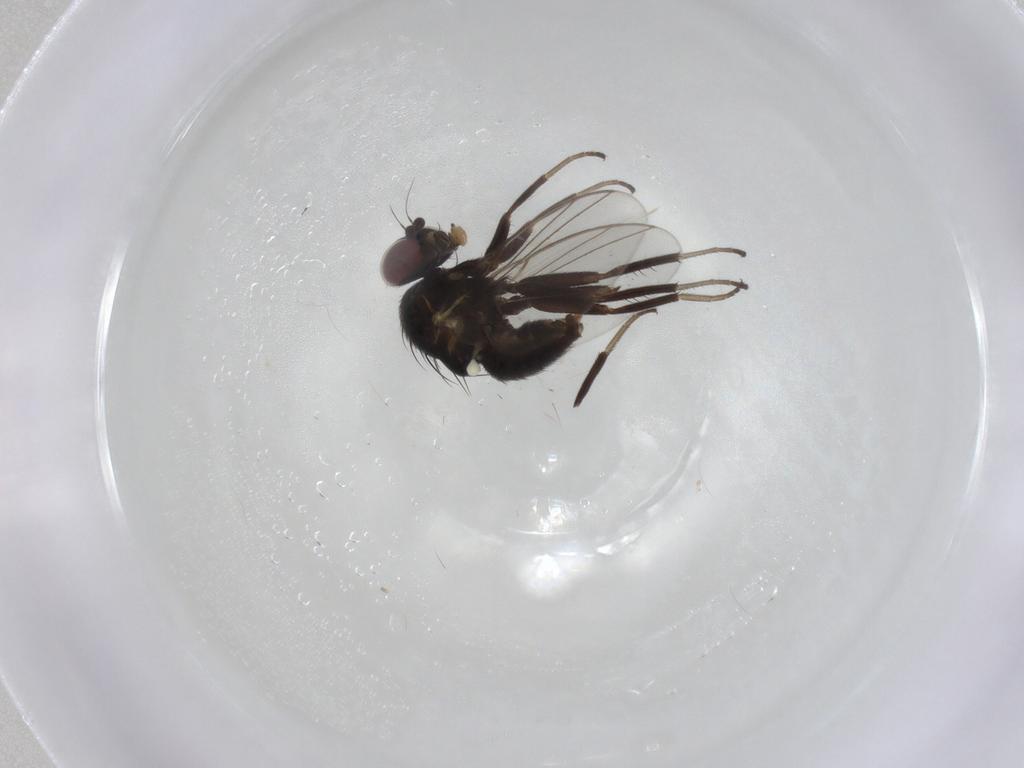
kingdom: Animalia
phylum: Arthropoda
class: Insecta
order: Diptera
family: Agromyzidae
